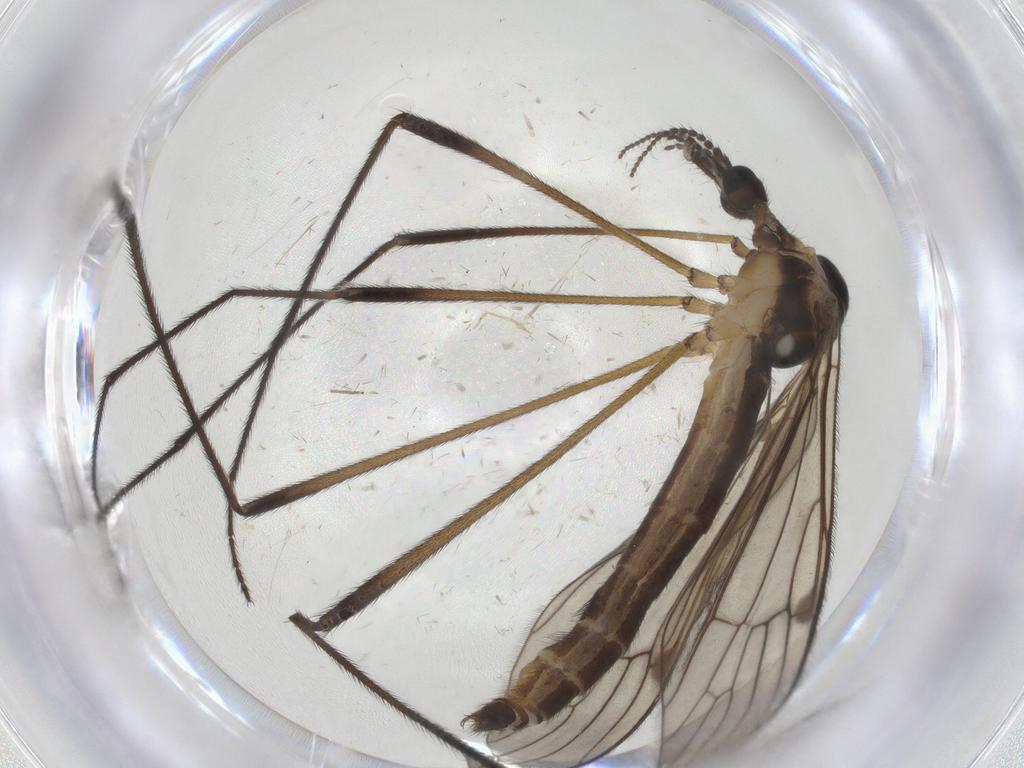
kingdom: Animalia
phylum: Arthropoda
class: Insecta
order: Diptera
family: Limoniidae
